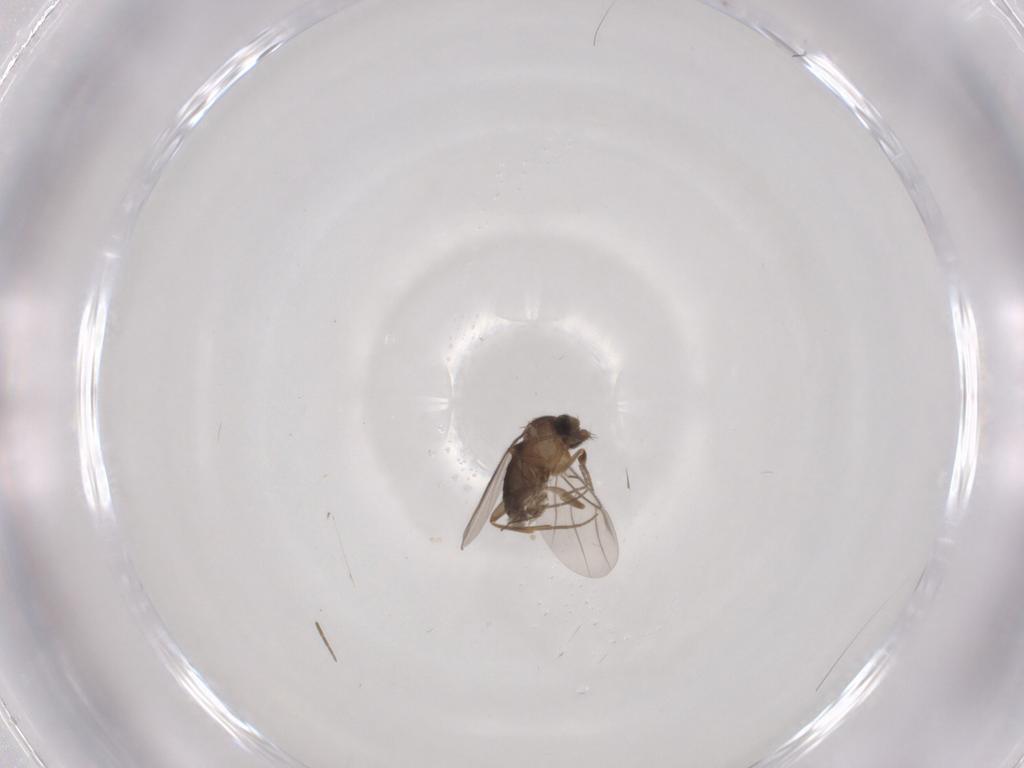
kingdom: Animalia
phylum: Arthropoda
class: Insecta
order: Diptera
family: Chironomidae
